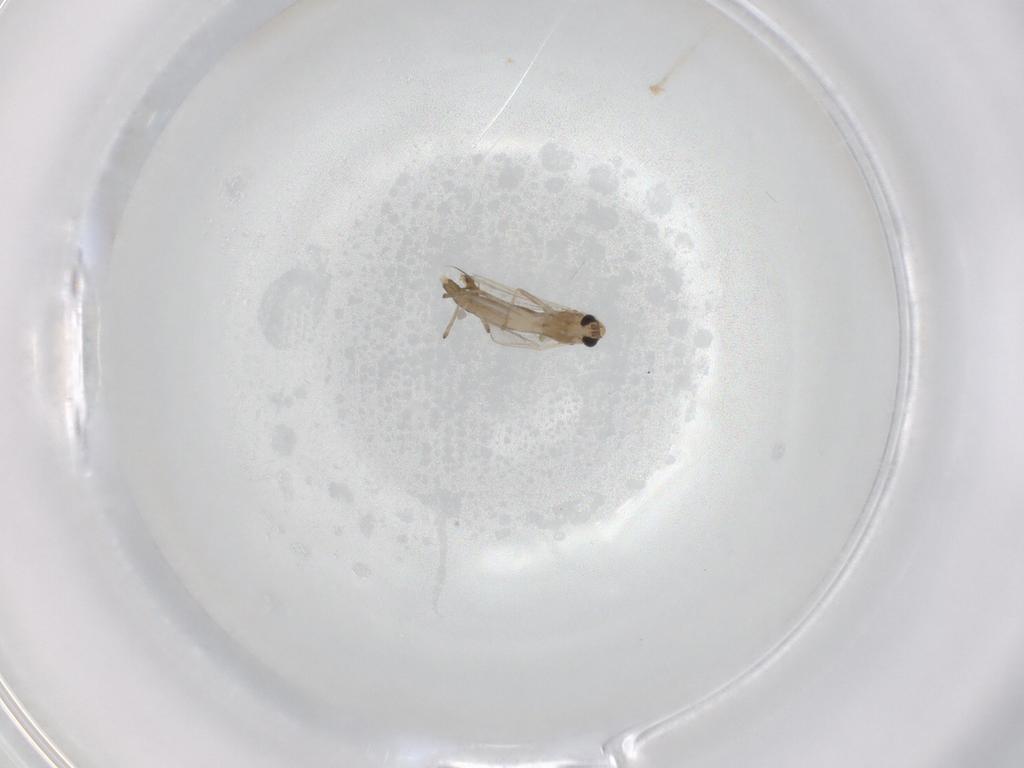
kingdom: Animalia
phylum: Arthropoda
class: Insecta
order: Diptera
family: Chironomidae
